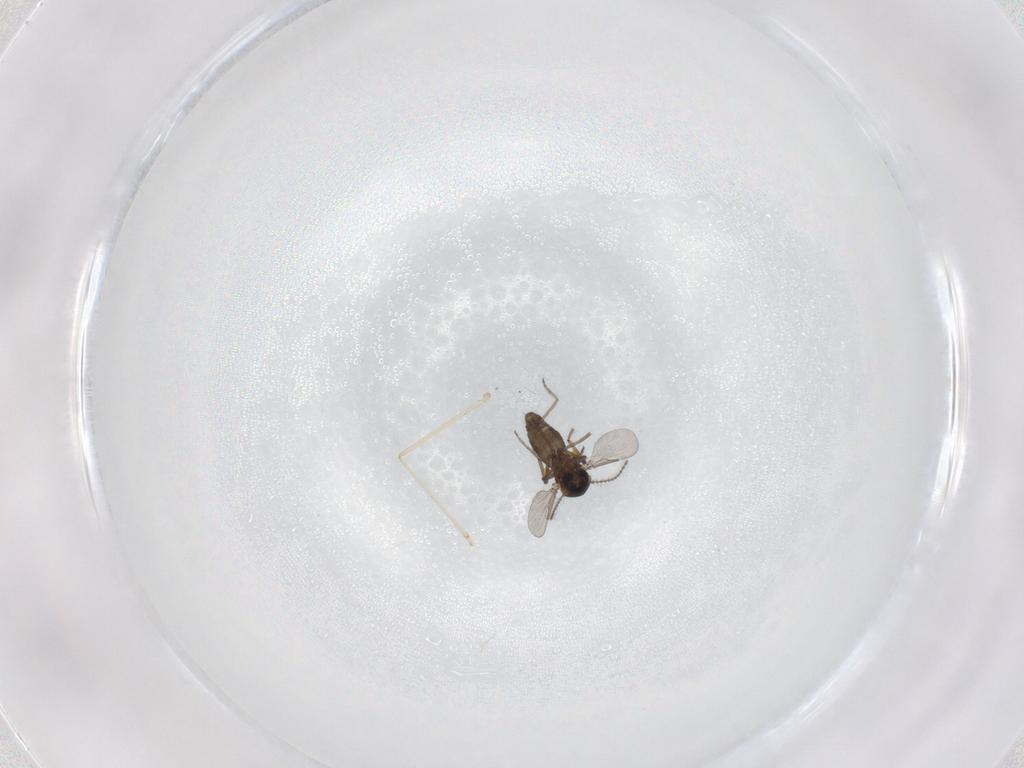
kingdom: Animalia
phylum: Arthropoda
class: Insecta
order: Diptera
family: Ceratopogonidae
